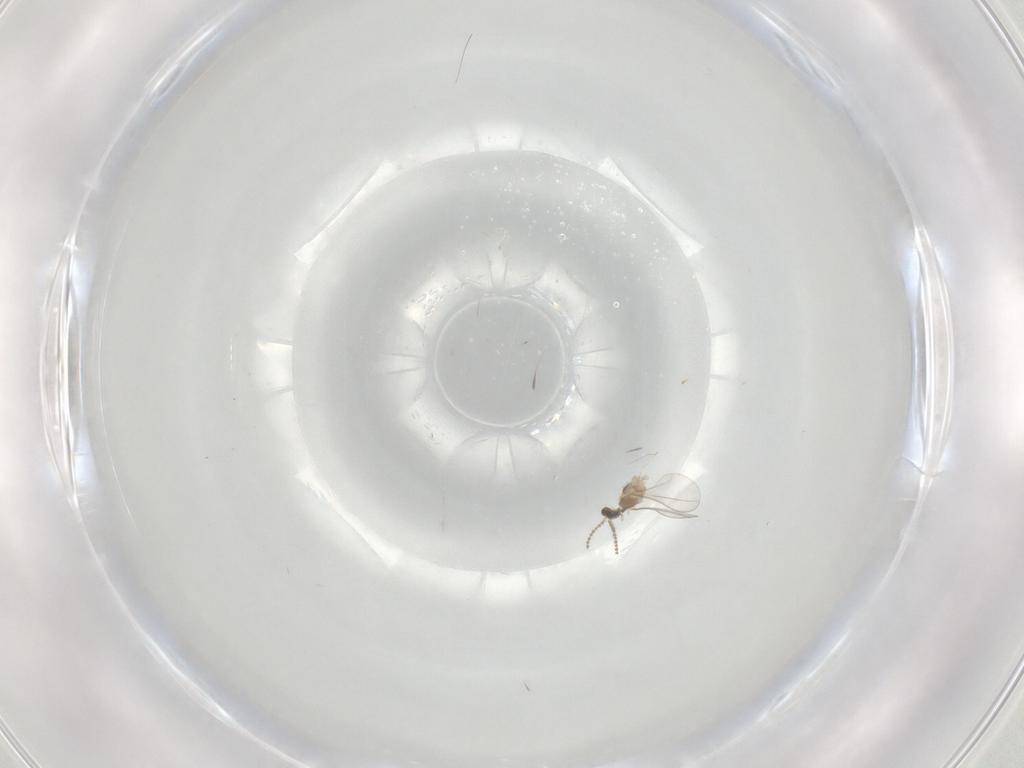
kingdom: Animalia
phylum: Arthropoda
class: Insecta
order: Diptera
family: Cecidomyiidae
